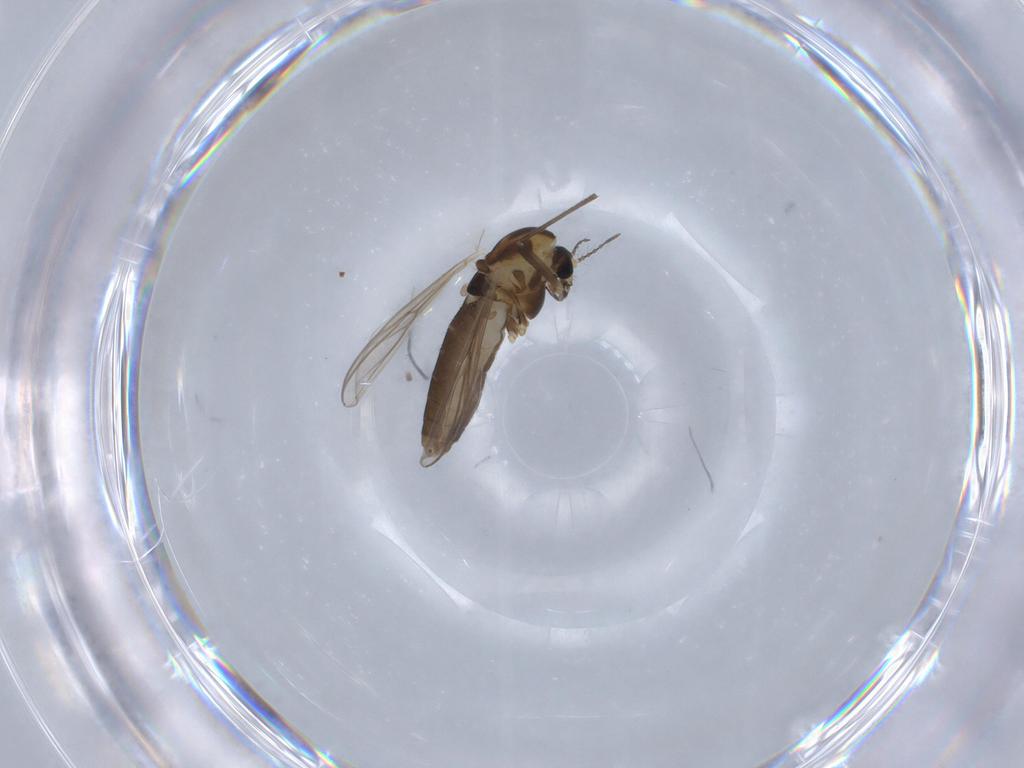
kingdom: Animalia
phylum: Arthropoda
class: Insecta
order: Diptera
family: Chironomidae
